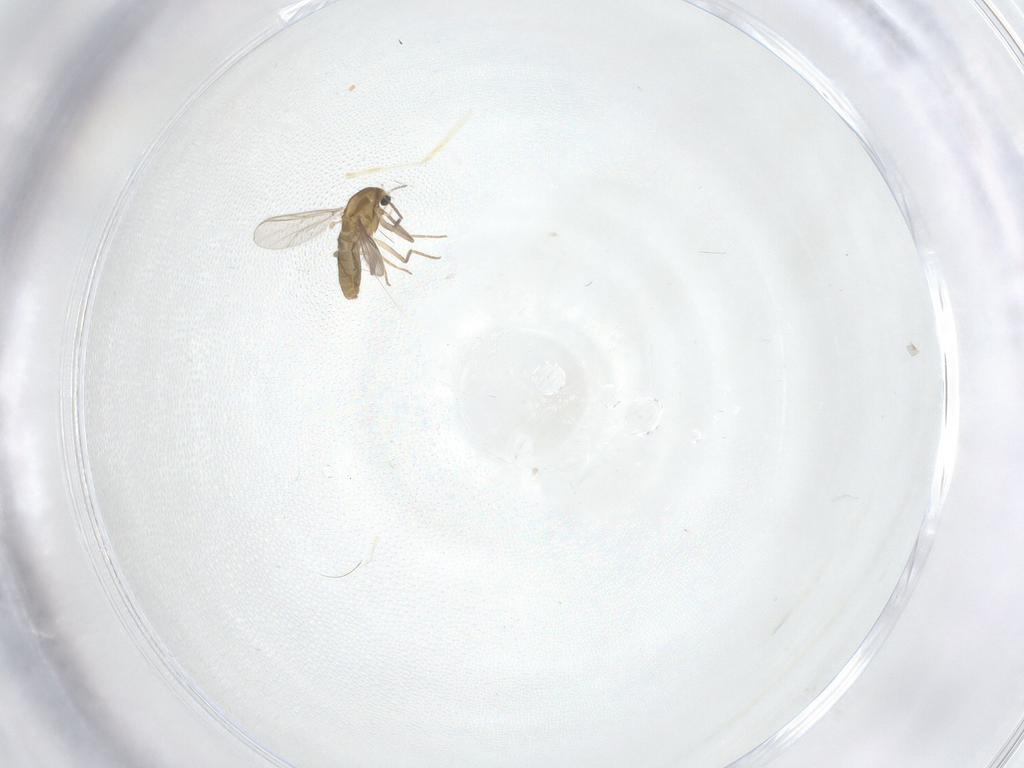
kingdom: Animalia
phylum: Arthropoda
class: Insecta
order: Diptera
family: Chironomidae
